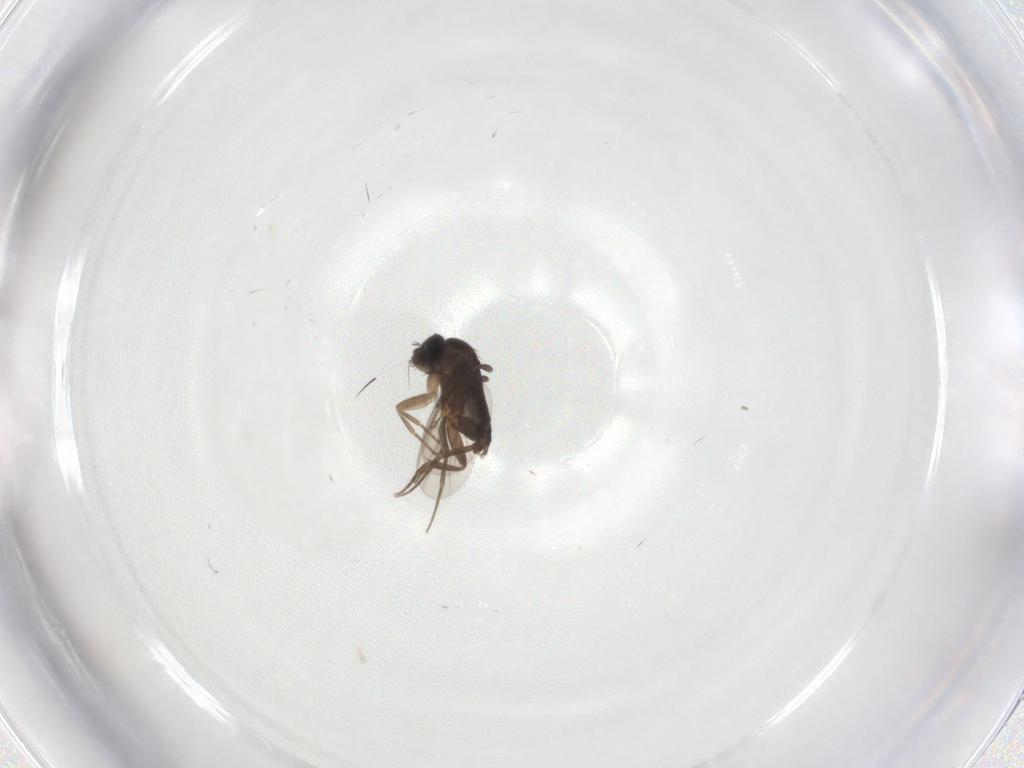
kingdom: Animalia
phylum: Arthropoda
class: Insecta
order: Diptera
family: Phoridae
